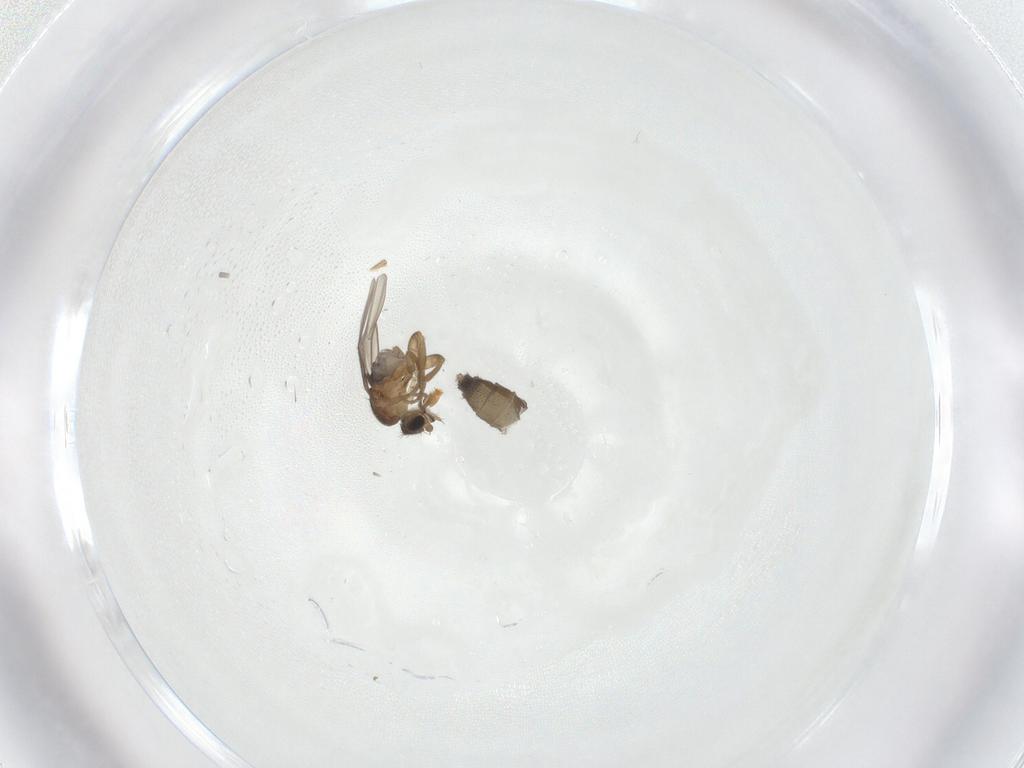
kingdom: Animalia
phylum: Arthropoda
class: Insecta
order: Diptera
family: Phoridae
